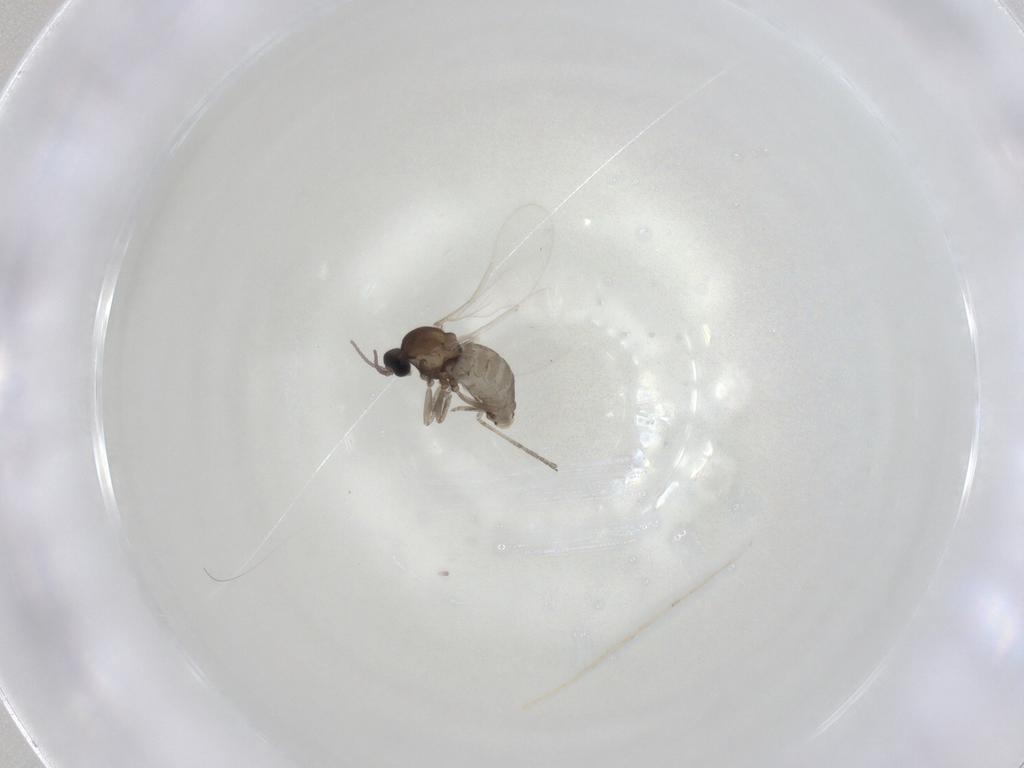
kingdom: Animalia
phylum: Arthropoda
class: Insecta
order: Diptera
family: Cecidomyiidae
